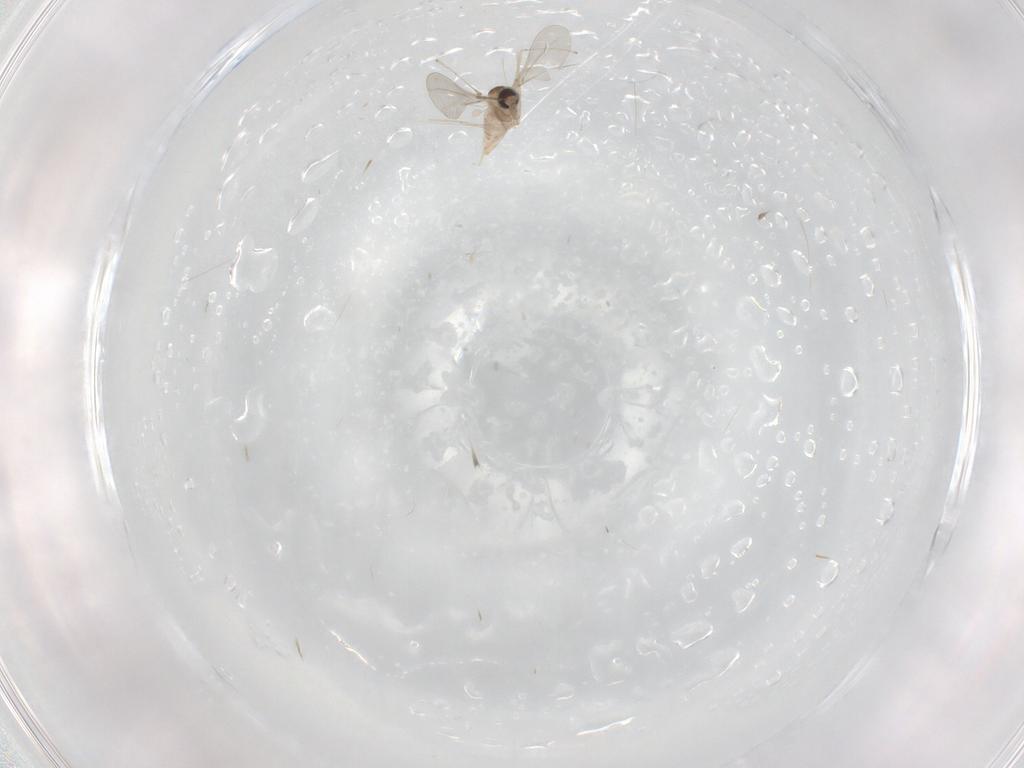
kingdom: Animalia
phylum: Arthropoda
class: Insecta
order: Diptera
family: Cecidomyiidae
